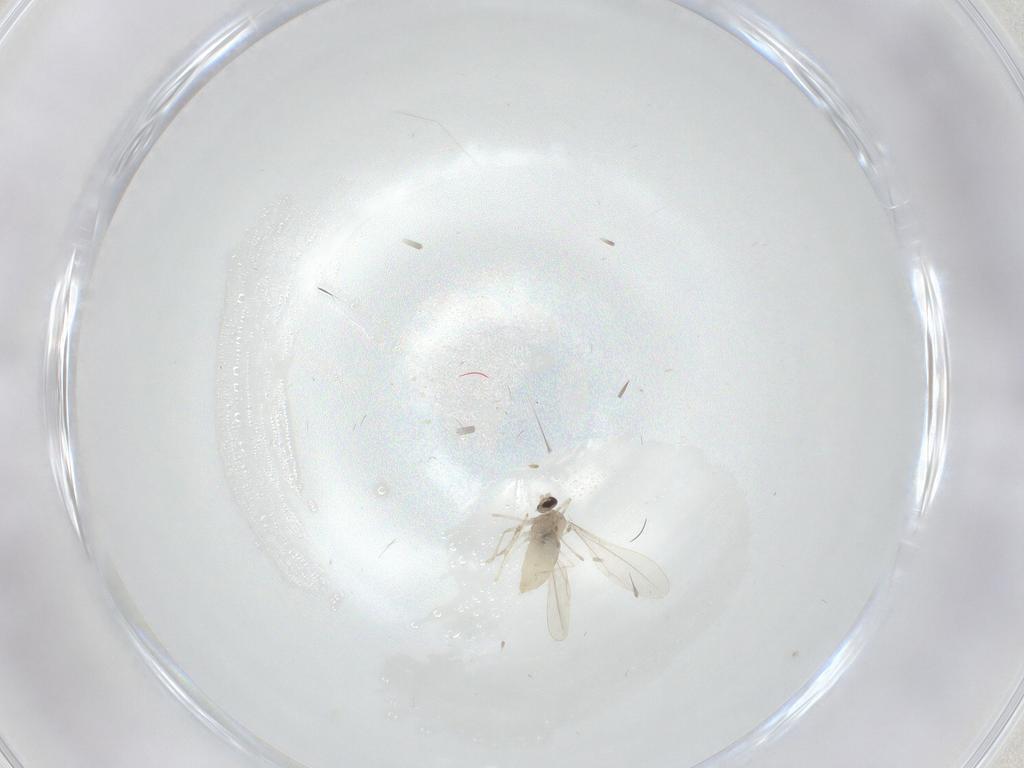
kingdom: Animalia
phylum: Arthropoda
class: Insecta
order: Diptera
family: Cecidomyiidae
